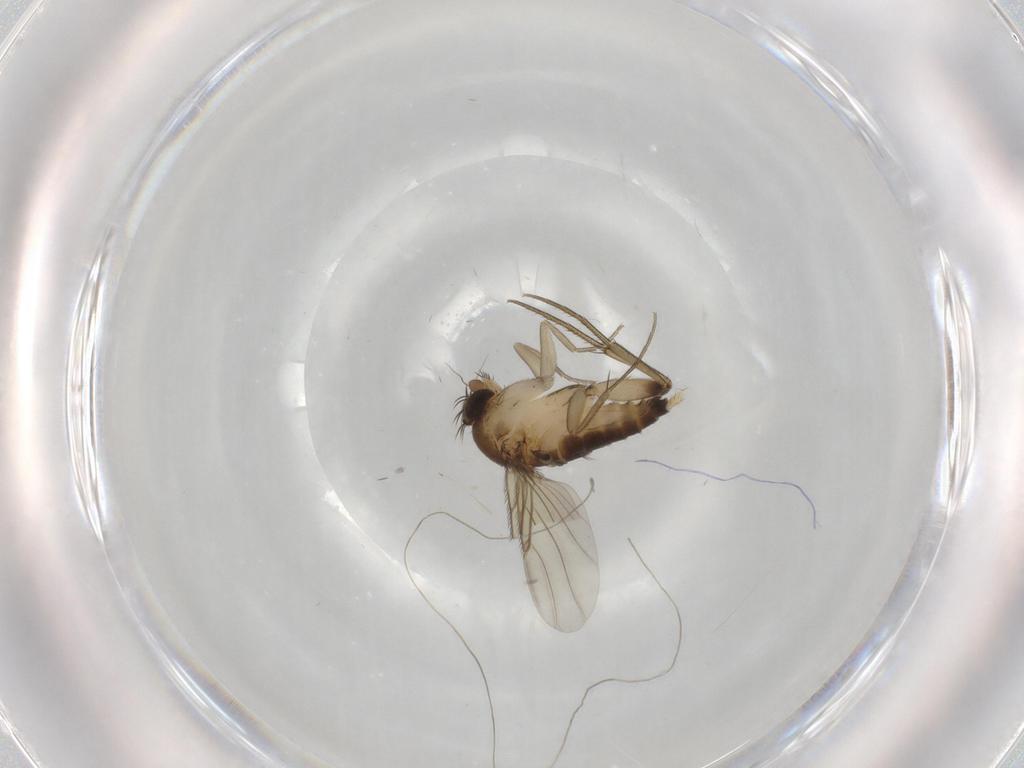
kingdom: Animalia
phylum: Arthropoda
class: Insecta
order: Diptera
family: Phoridae
